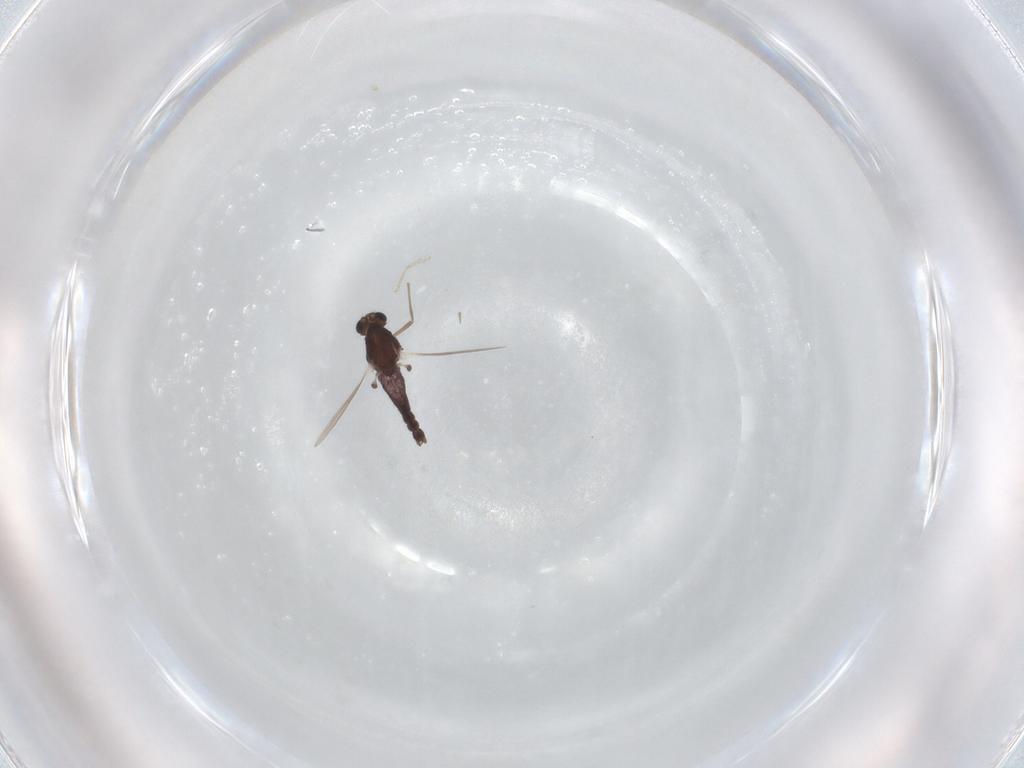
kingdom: Animalia
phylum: Arthropoda
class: Insecta
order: Diptera
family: Chironomidae
